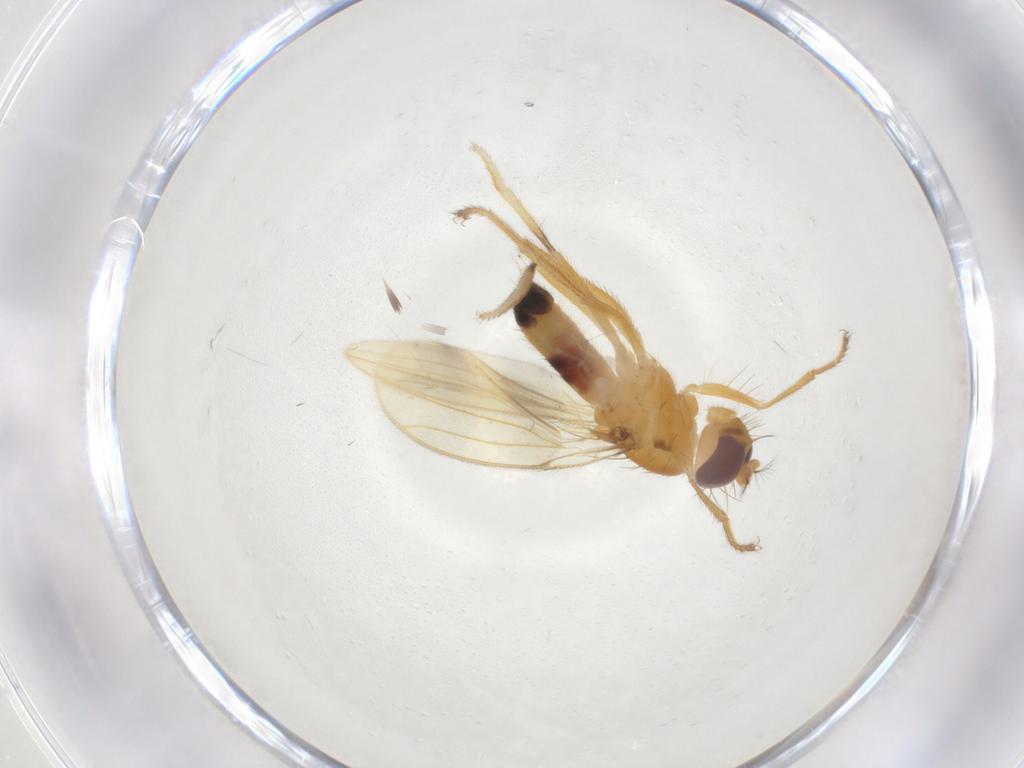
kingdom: Animalia
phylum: Arthropoda
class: Insecta
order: Diptera
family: Periscelididae
